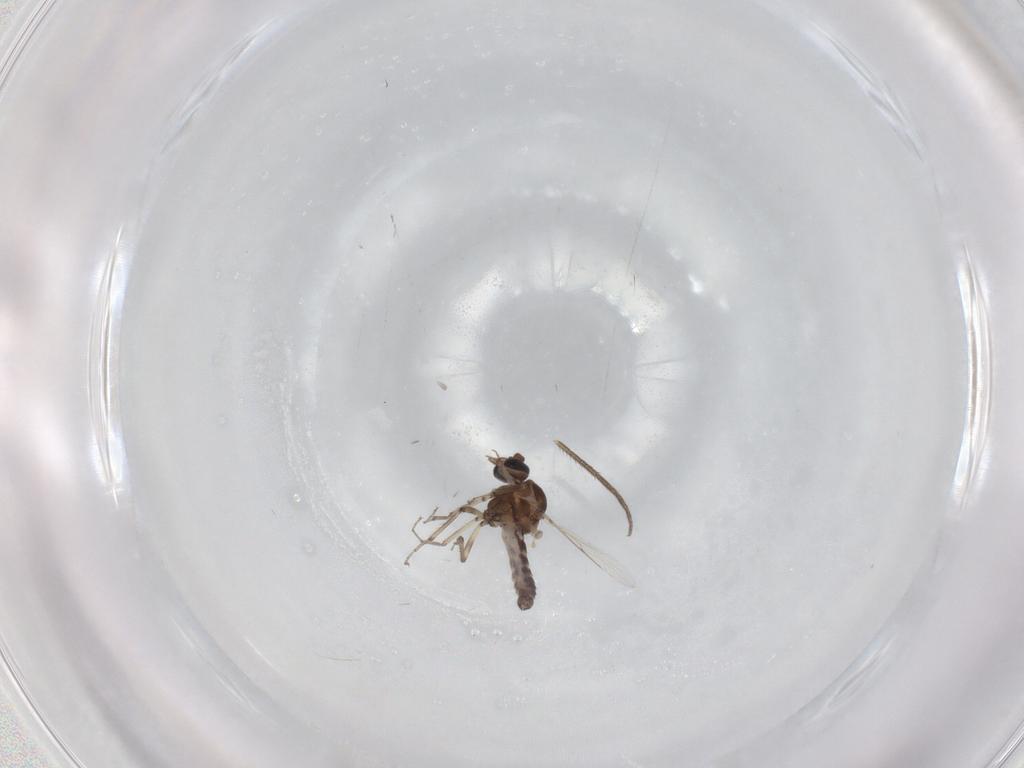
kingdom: Animalia
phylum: Arthropoda
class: Insecta
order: Diptera
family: Ceratopogonidae
